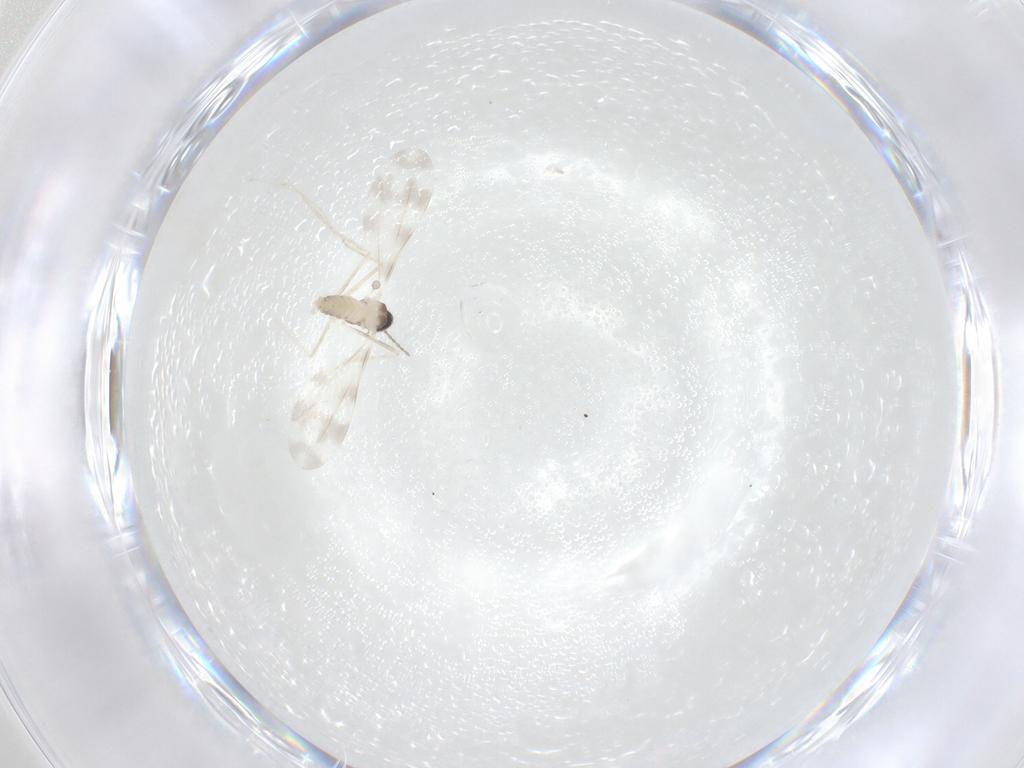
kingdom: Animalia
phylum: Arthropoda
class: Insecta
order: Diptera
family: Cecidomyiidae
